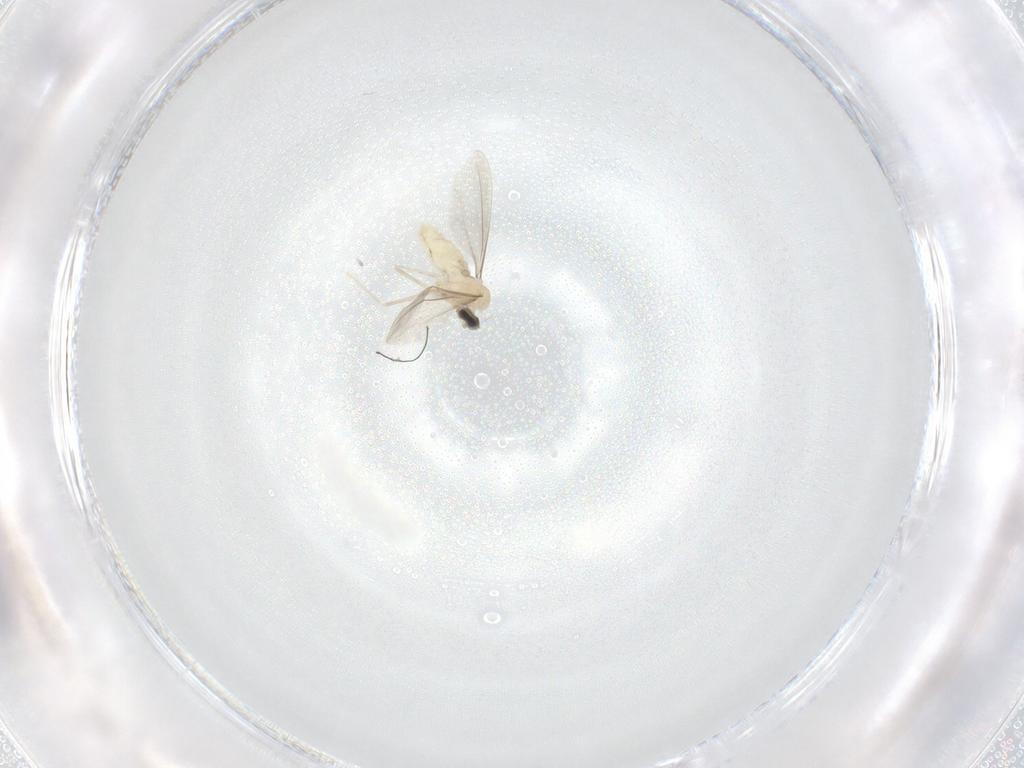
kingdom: Animalia
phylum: Arthropoda
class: Insecta
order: Diptera
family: Cecidomyiidae
